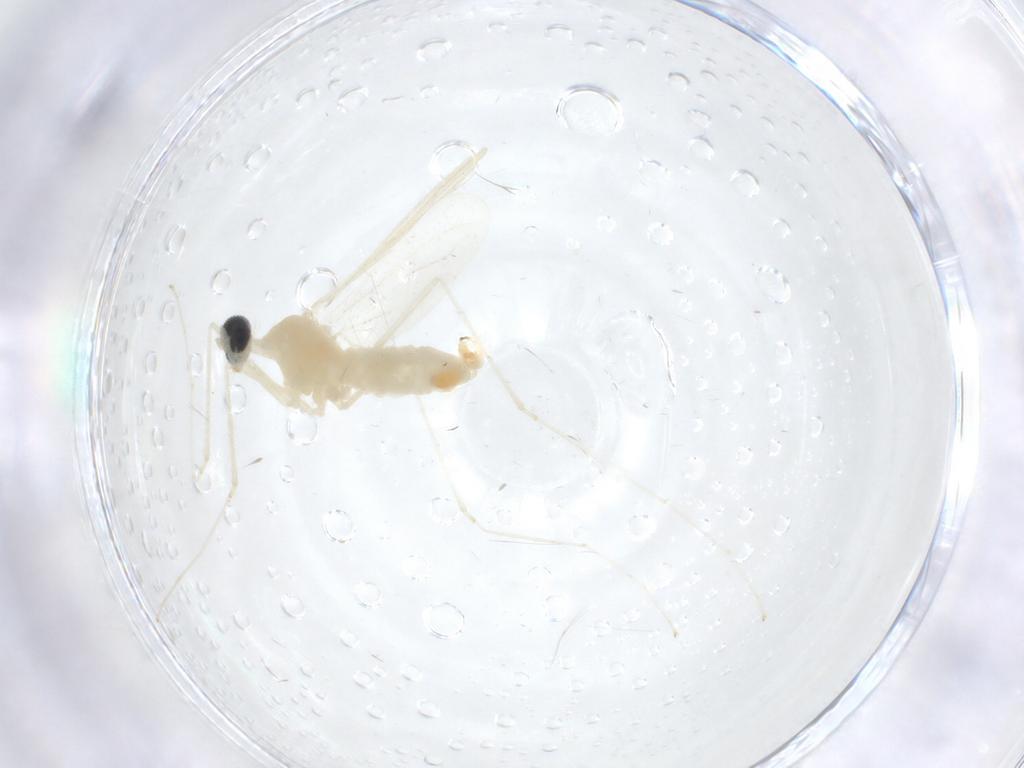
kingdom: Animalia
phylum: Arthropoda
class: Insecta
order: Diptera
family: Cecidomyiidae
